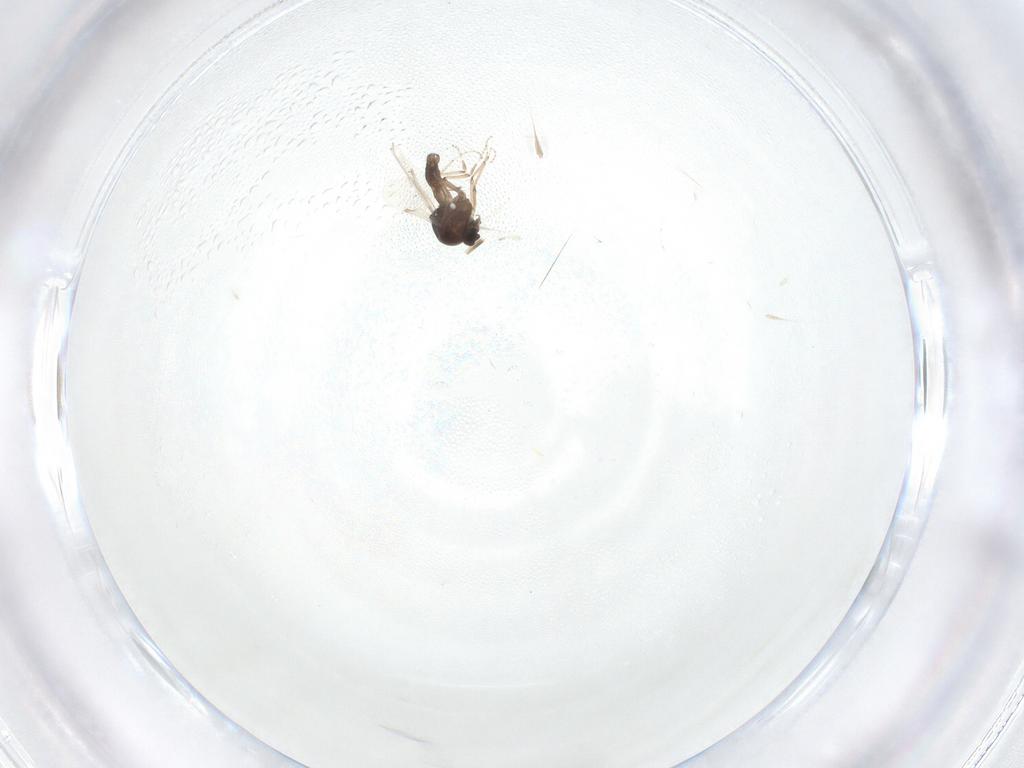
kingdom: Animalia
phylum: Arthropoda
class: Insecta
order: Diptera
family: Ceratopogonidae
